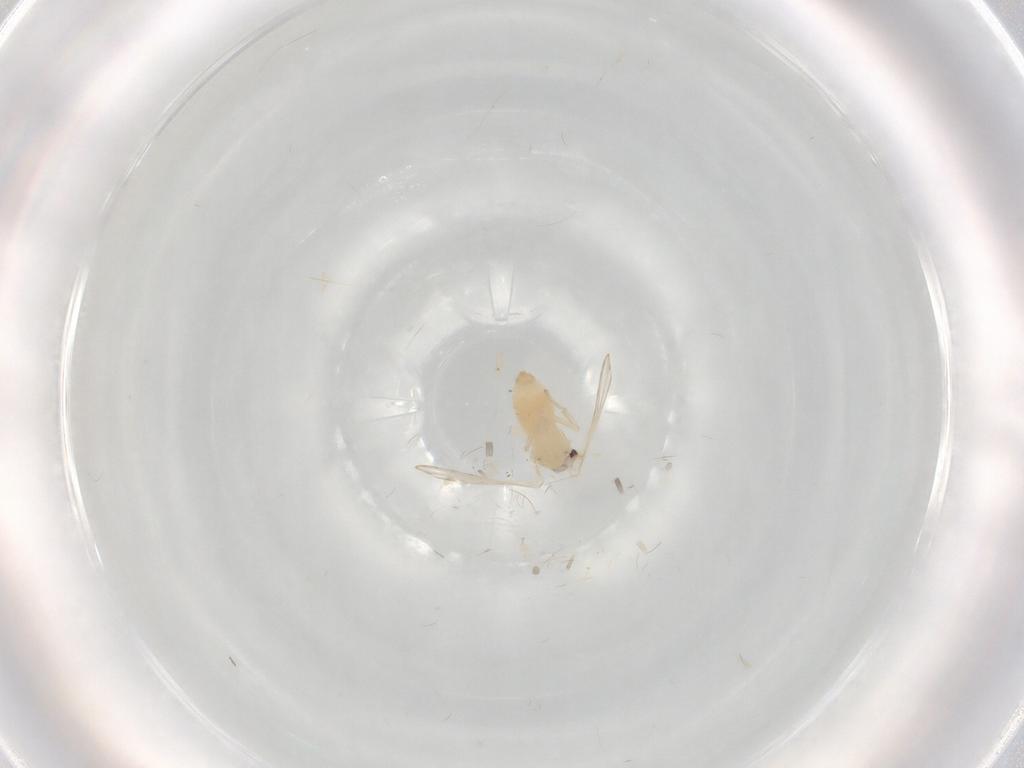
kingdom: Animalia
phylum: Arthropoda
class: Insecta
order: Diptera
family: Psychodidae
